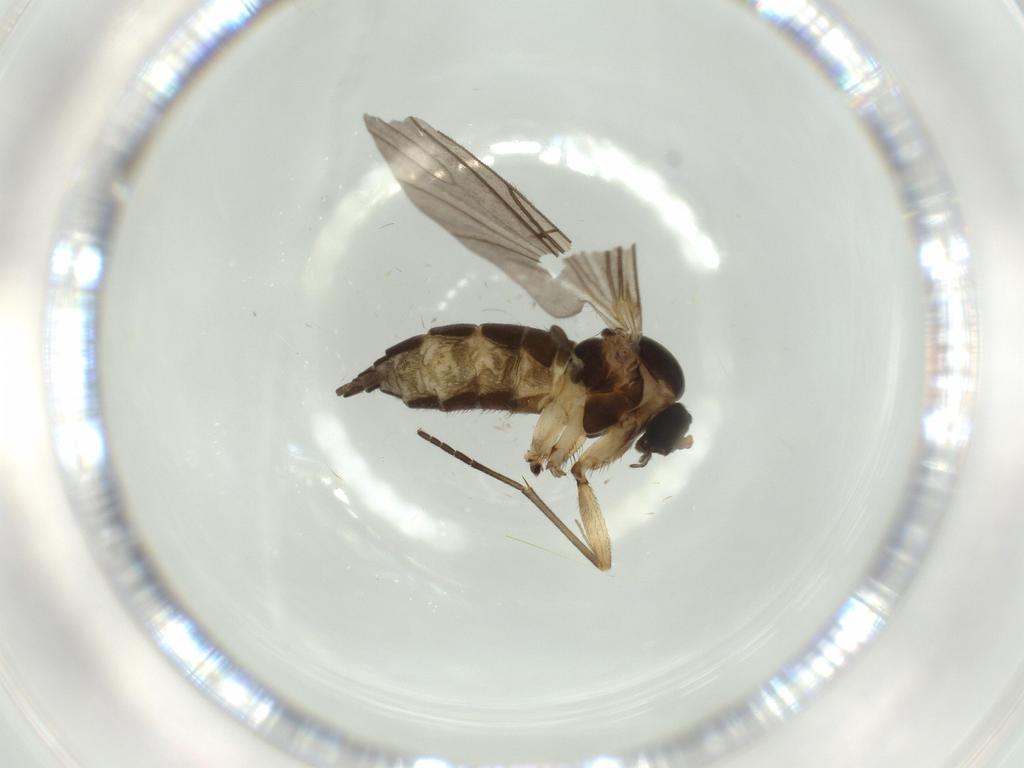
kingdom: Animalia
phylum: Arthropoda
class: Insecta
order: Diptera
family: Sciaridae
